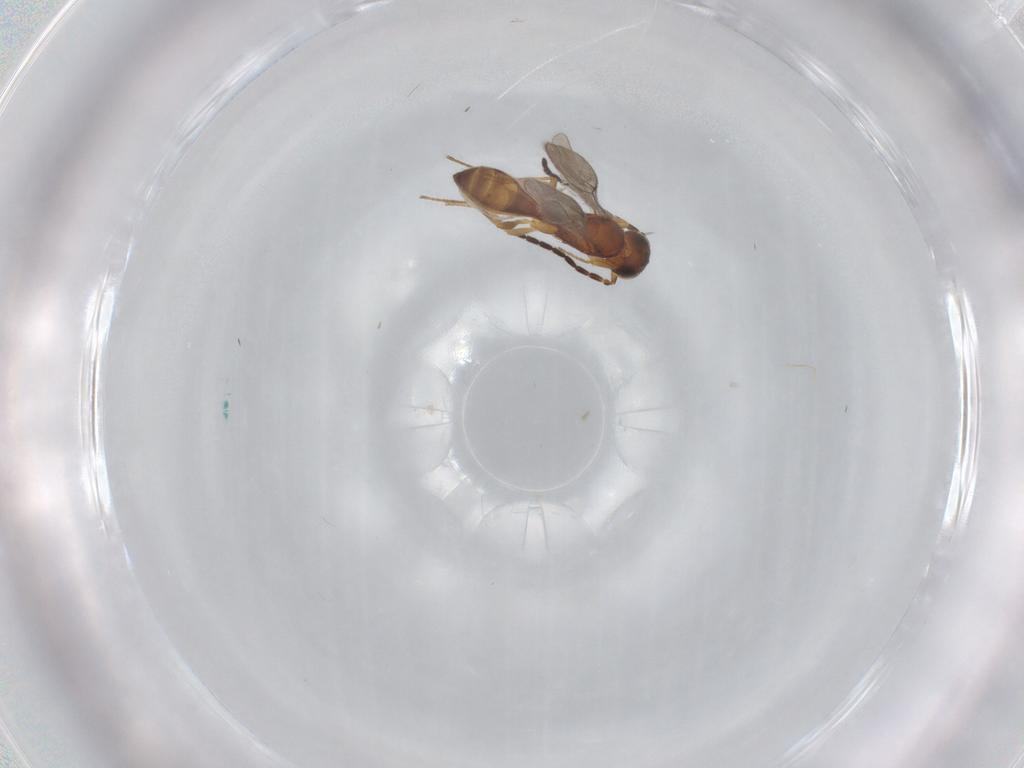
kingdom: Animalia
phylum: Arthropoda
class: Insecta
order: Hymenoptera
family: Scelionidae
